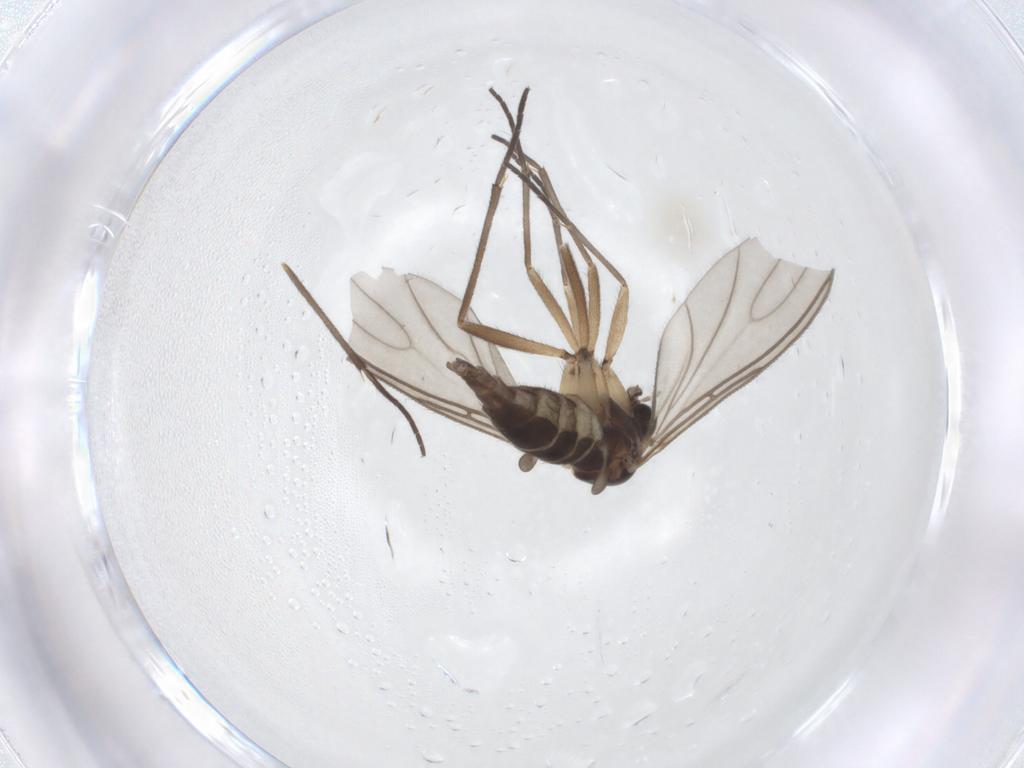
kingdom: Animalia
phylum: Arthropoda
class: Insecta
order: Diptera
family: Sciaridae
